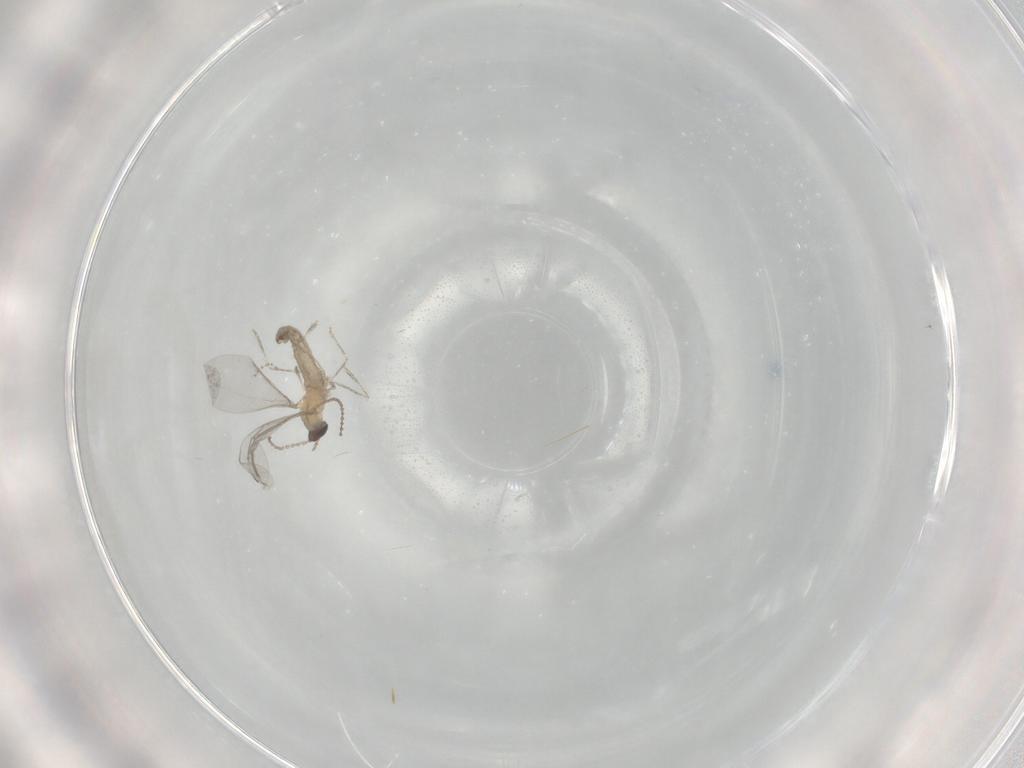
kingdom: Animalia
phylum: Arthropoda
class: Insecta
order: Diptera
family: Cecidomyiidae
